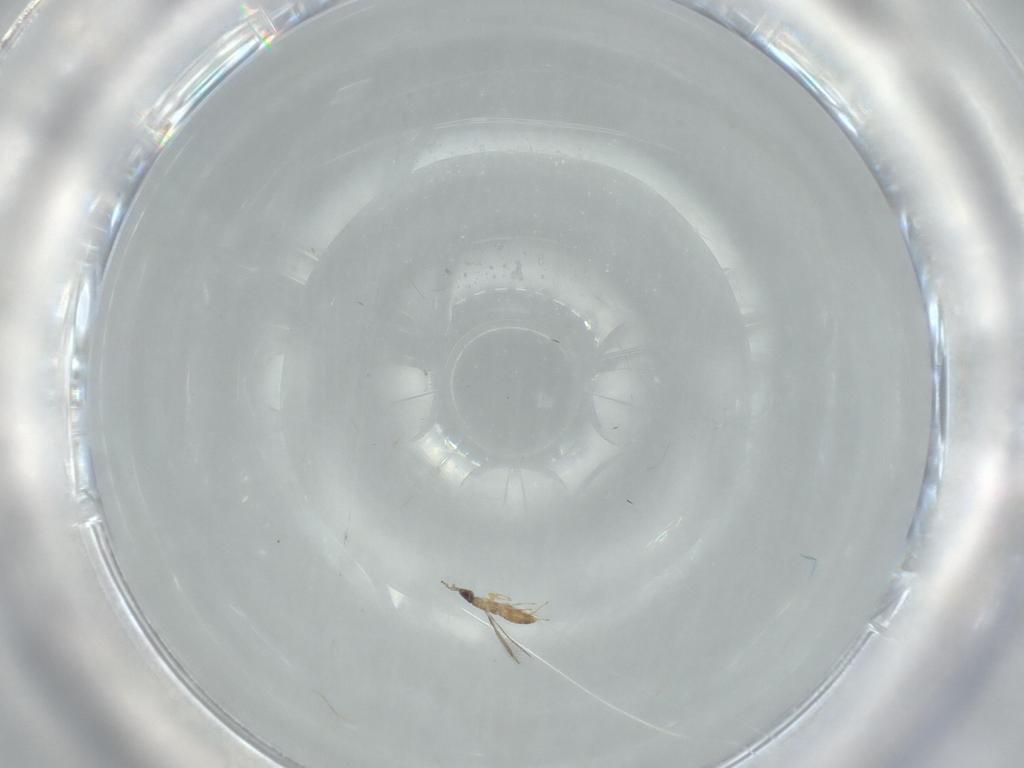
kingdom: Animalia
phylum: Arthropoda
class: Insecta
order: Hymenoptera
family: Mymaridae
